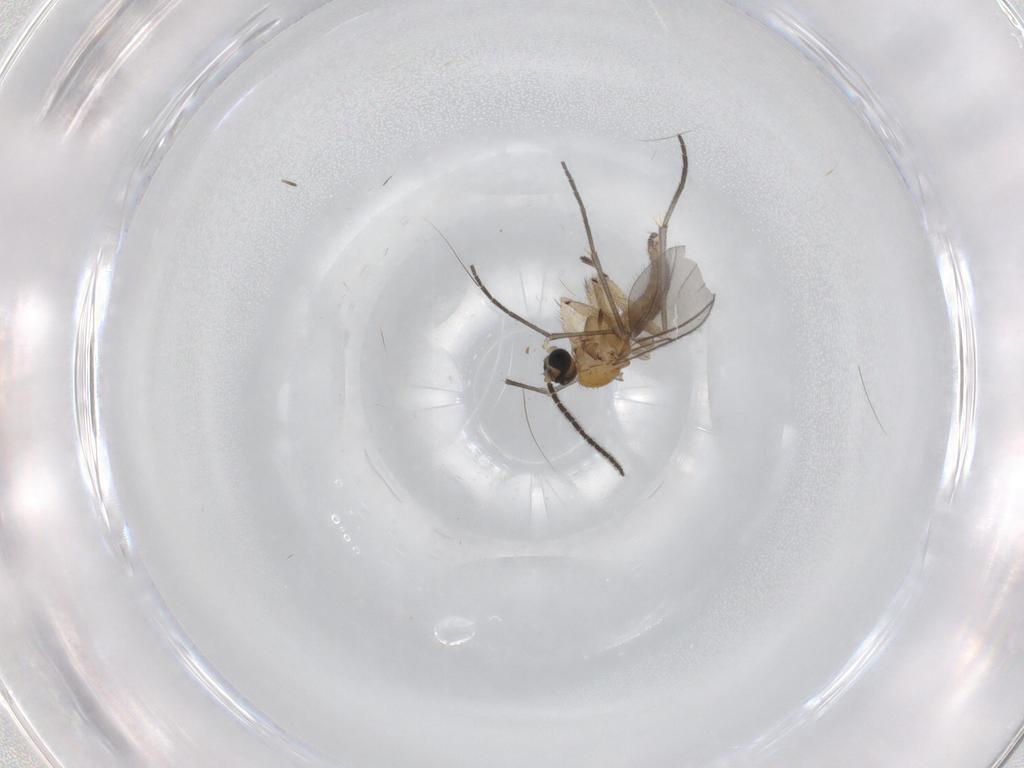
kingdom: Animalia
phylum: Arthropoda
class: Insecta
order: Diptera
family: Sciaridae
